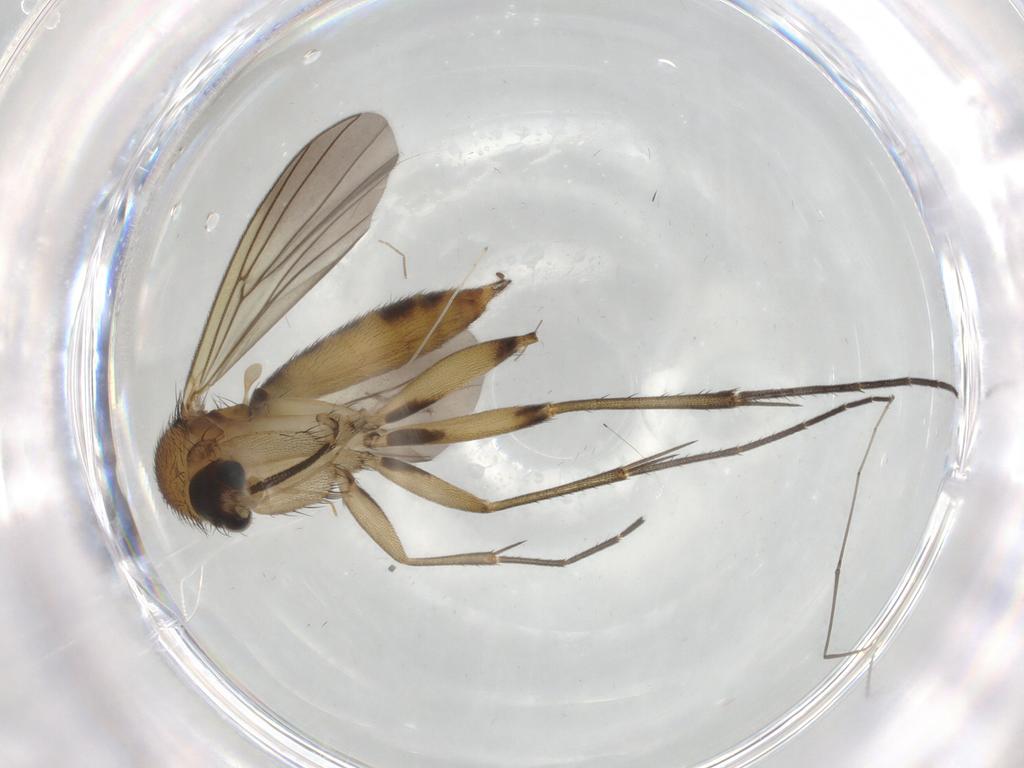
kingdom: Animalia
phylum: Arthropoda
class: Insecta
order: Diptera
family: Mycetophilidae
